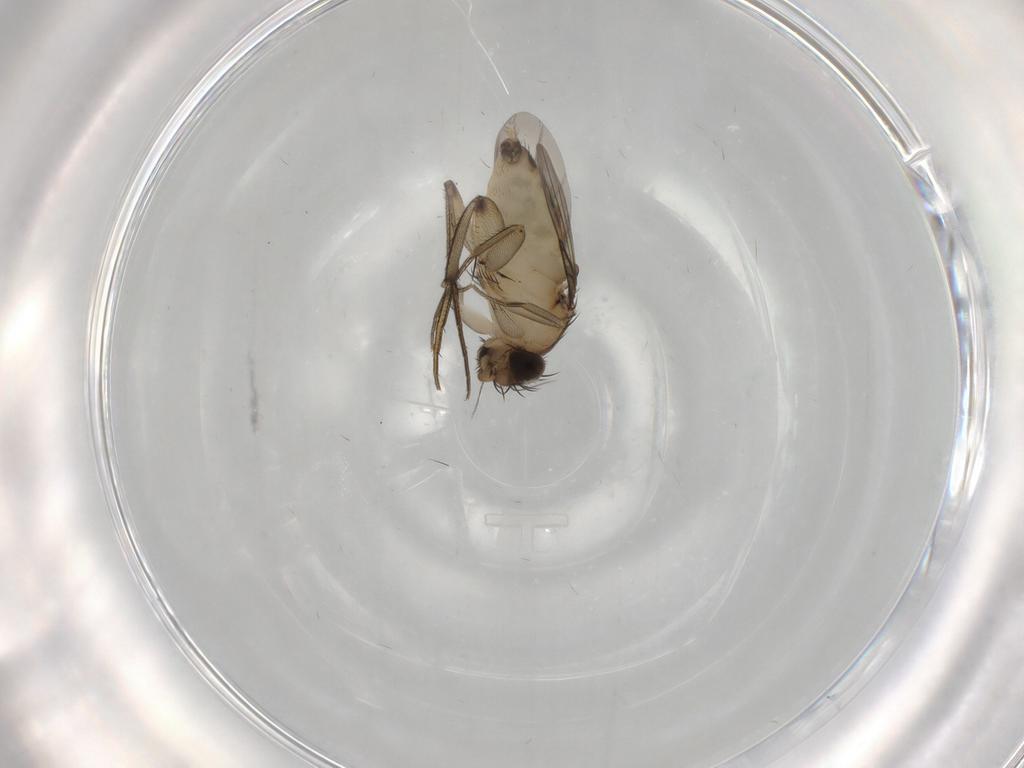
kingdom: Animalia
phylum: Arthropoda
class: Insecta
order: Diptera
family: Phoridae
